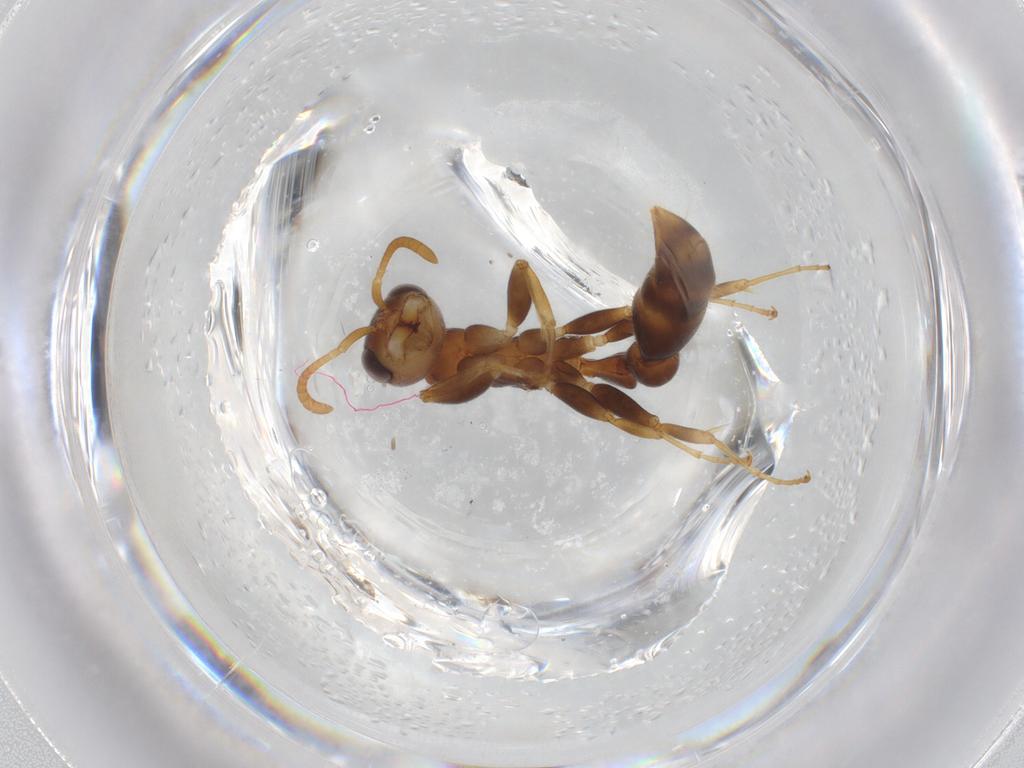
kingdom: Animalia
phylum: Arthropoda
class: Insecta
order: Hymenoptera
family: Formicidae
